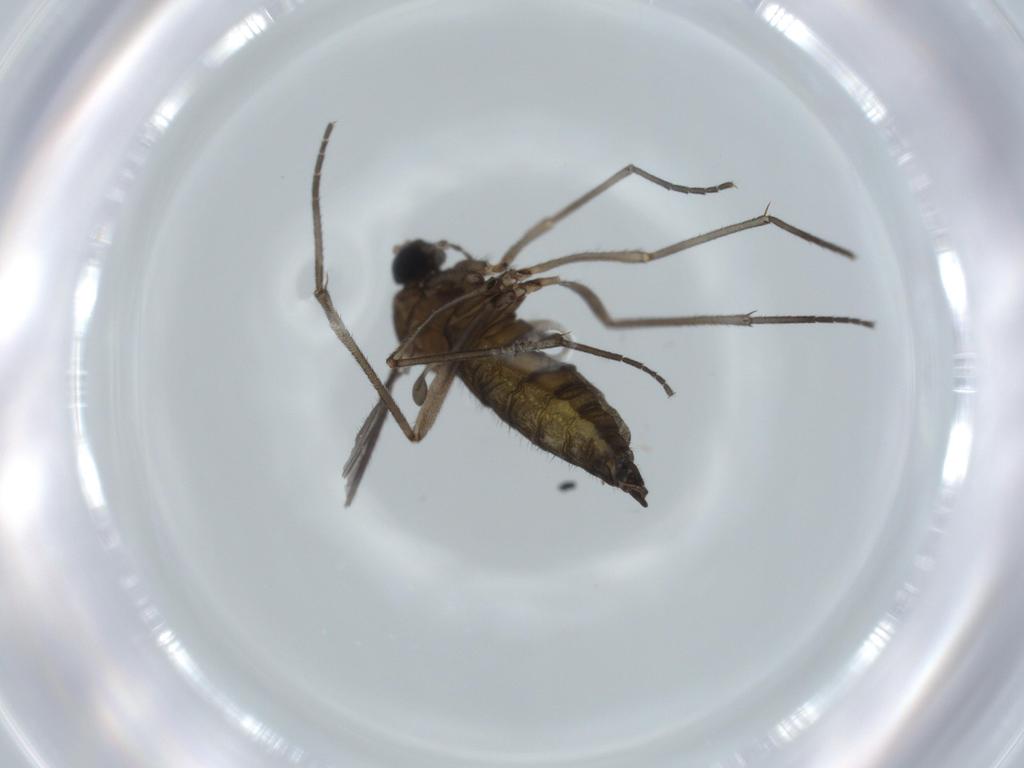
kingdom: Animalia
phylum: Arthropoda
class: Insecta
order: Diptera
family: Sciaridae
